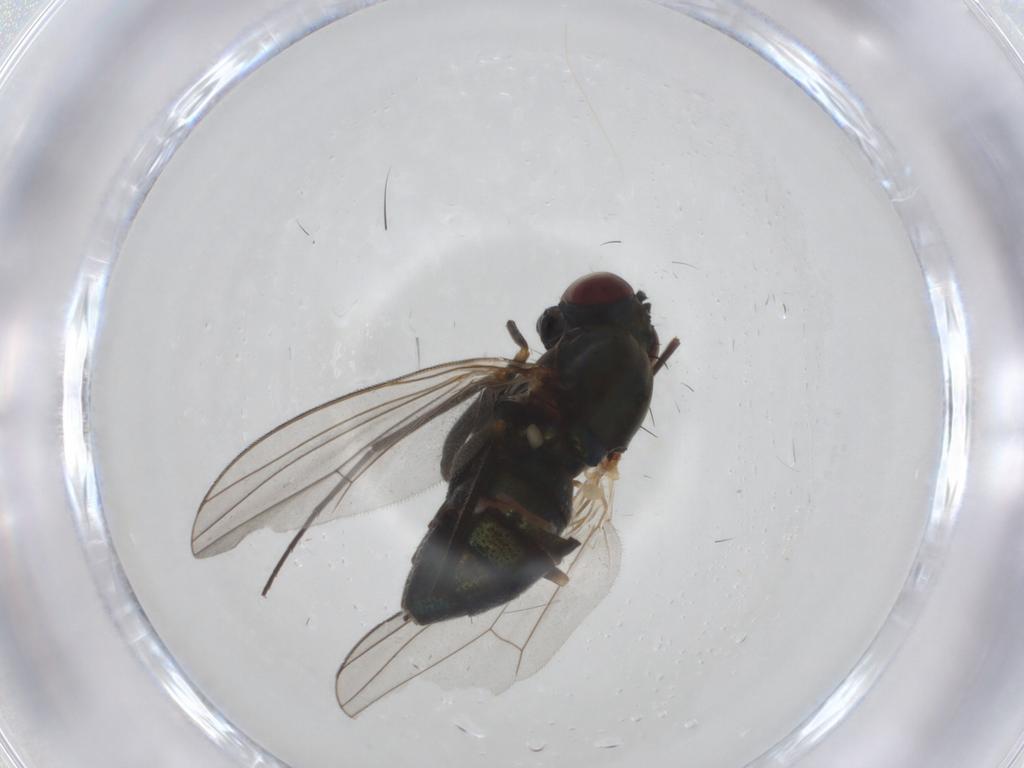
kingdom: Animalia
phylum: Arthropoda
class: Insecta
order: Diptera
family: Dolichopodidae
